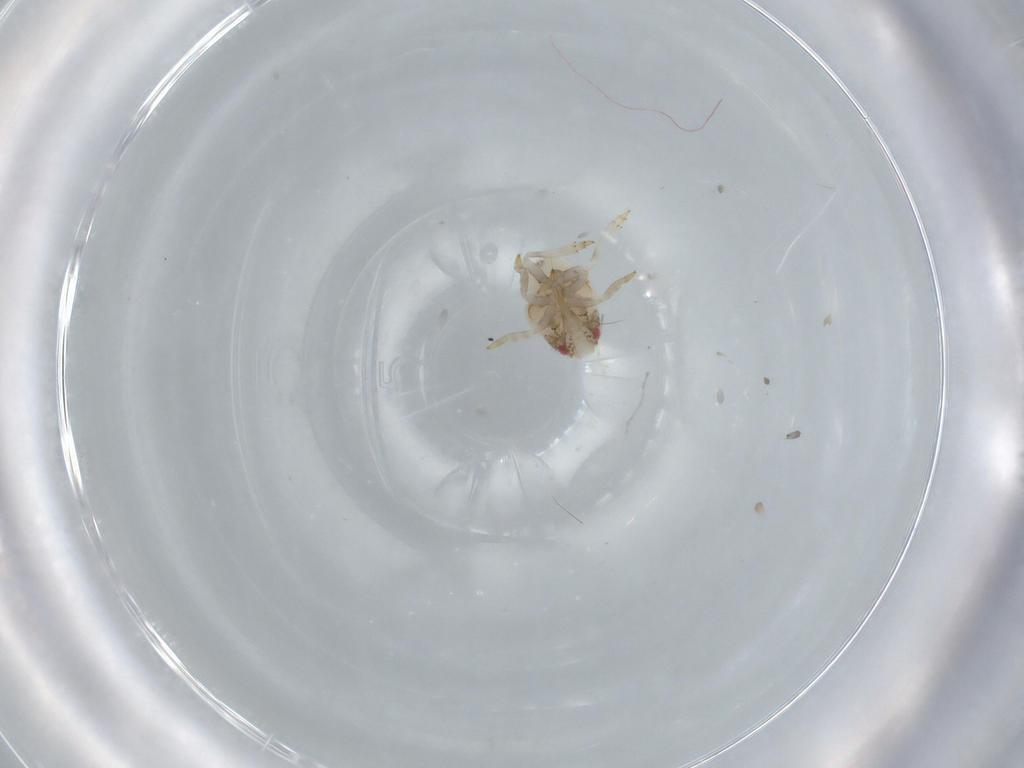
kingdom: Animalia
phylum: Arthropoda
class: Insecta
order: Hemiptera
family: Acanaloniidae
